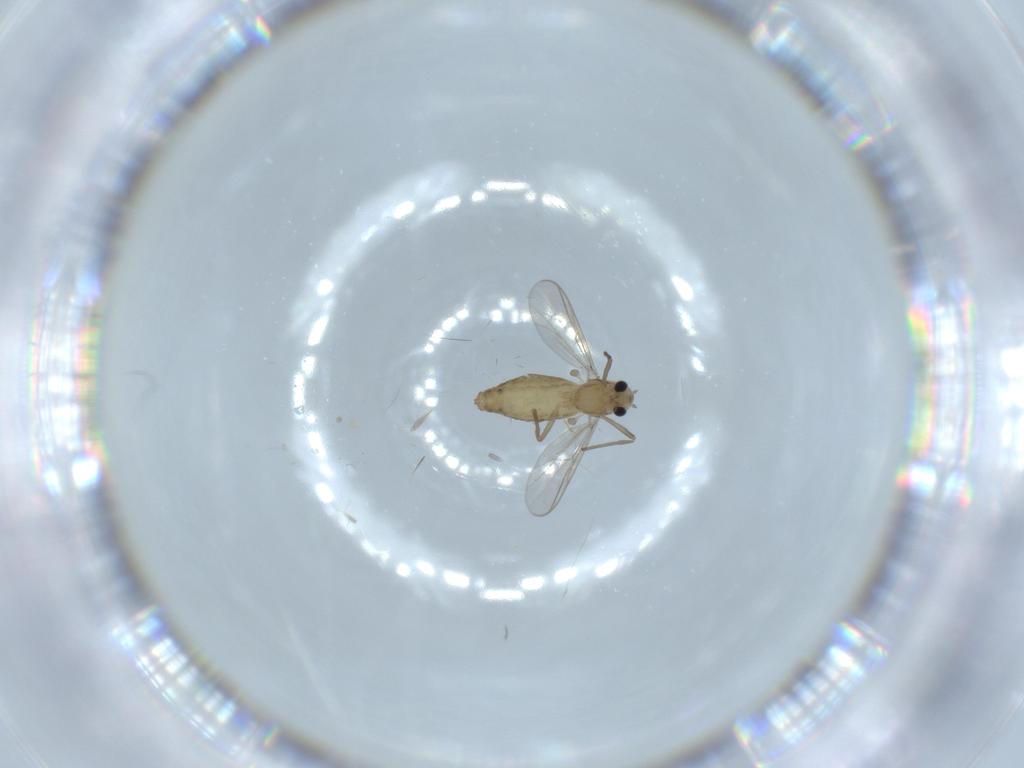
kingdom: Animalia
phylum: Arthropoda
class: Insecta
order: Diptera
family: Chironomidae
